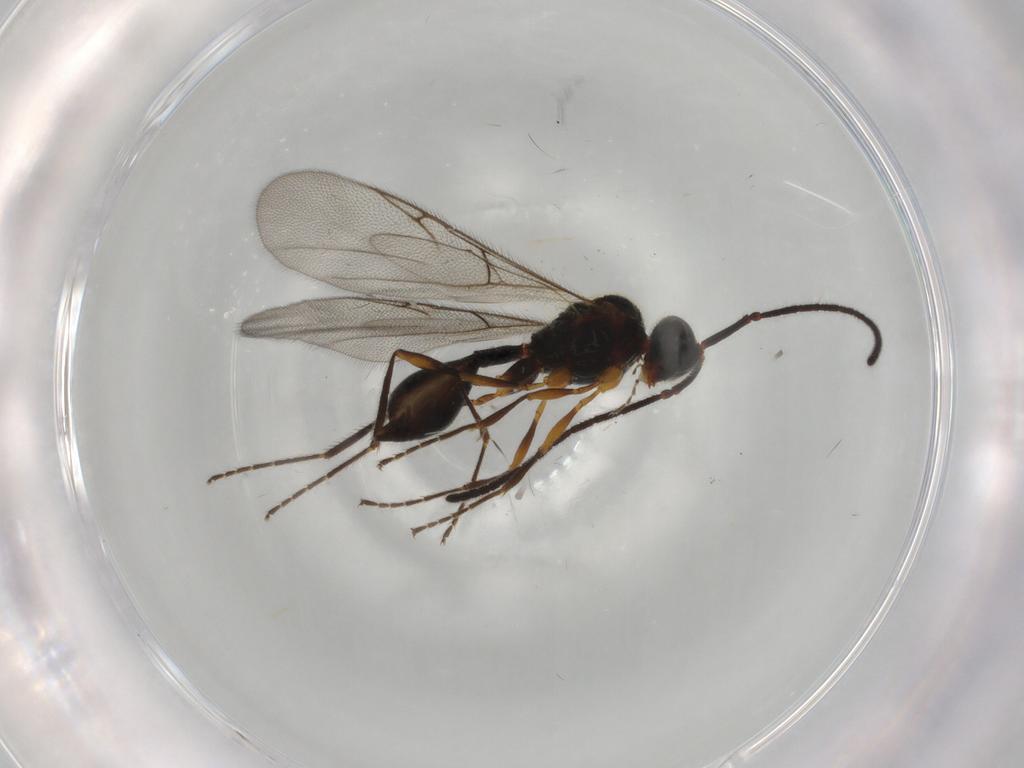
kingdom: Animalia
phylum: Arthropoda
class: Insecta
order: Hymenoptera
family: Diapriidae
